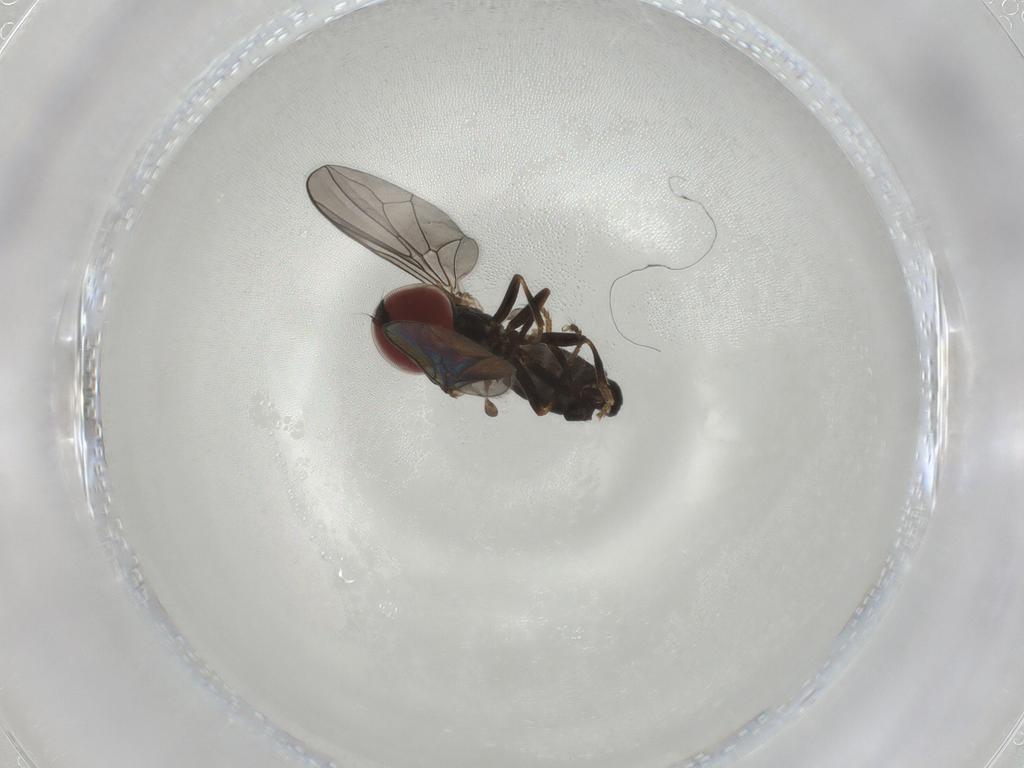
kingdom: Animalia
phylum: Arthropoda
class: Insecta
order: Diptera
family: Pipunculidae
